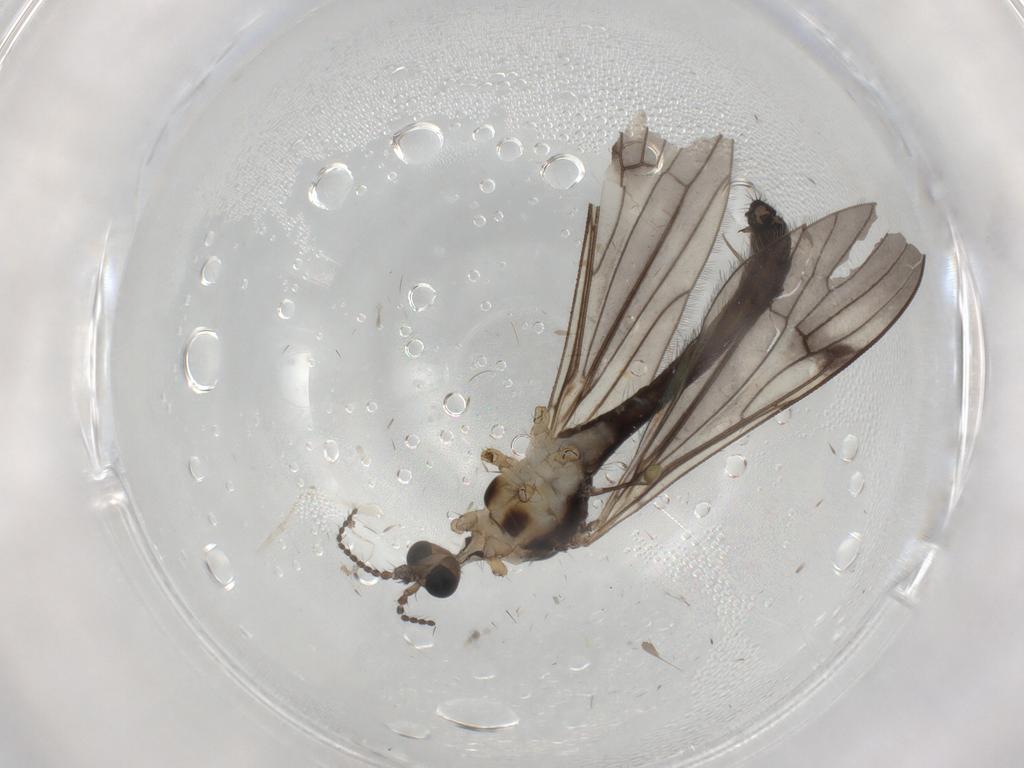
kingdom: Animalia
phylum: Arthropoda
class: Insecta
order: Diptera
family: Limoniidae
